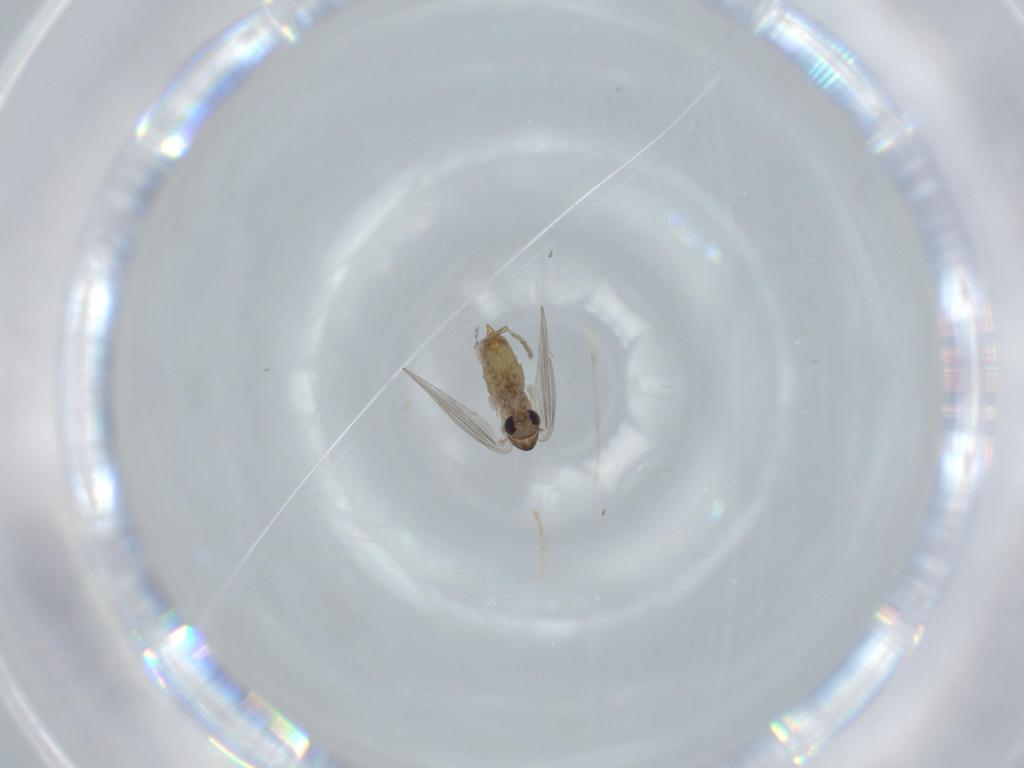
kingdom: Animalia
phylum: Arthropoda
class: Insecta
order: Diptera
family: Psychodidae
